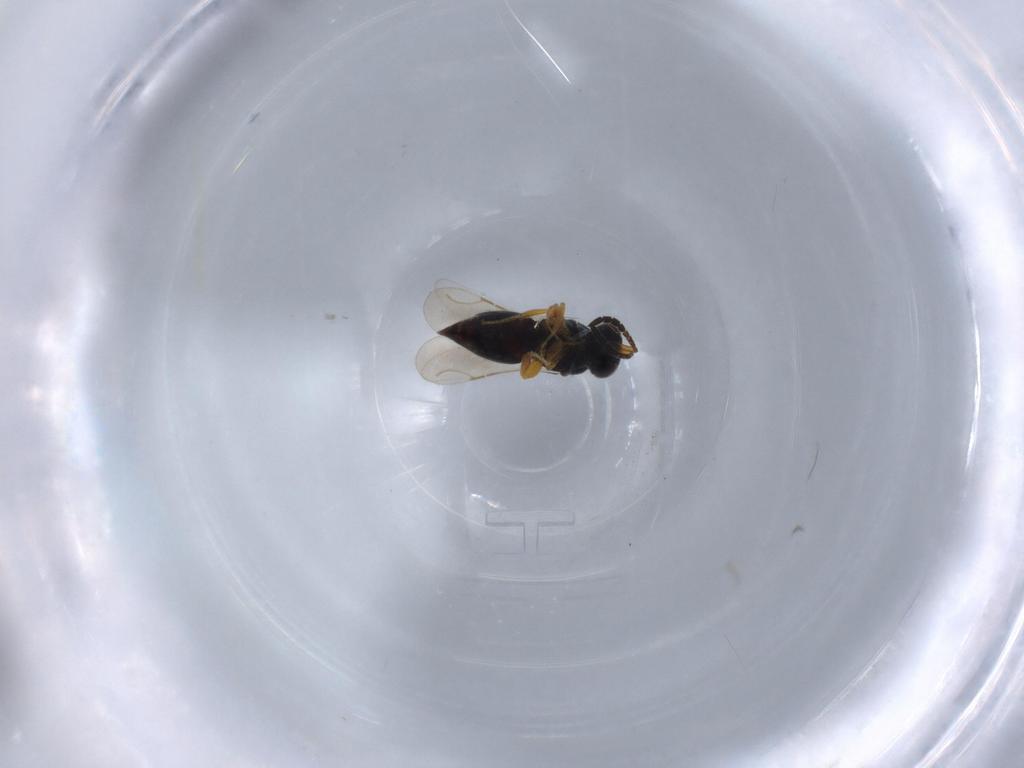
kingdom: Animalia
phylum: Arthropoda
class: Insecta
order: Hymenoptera
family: Ceraphronidae
